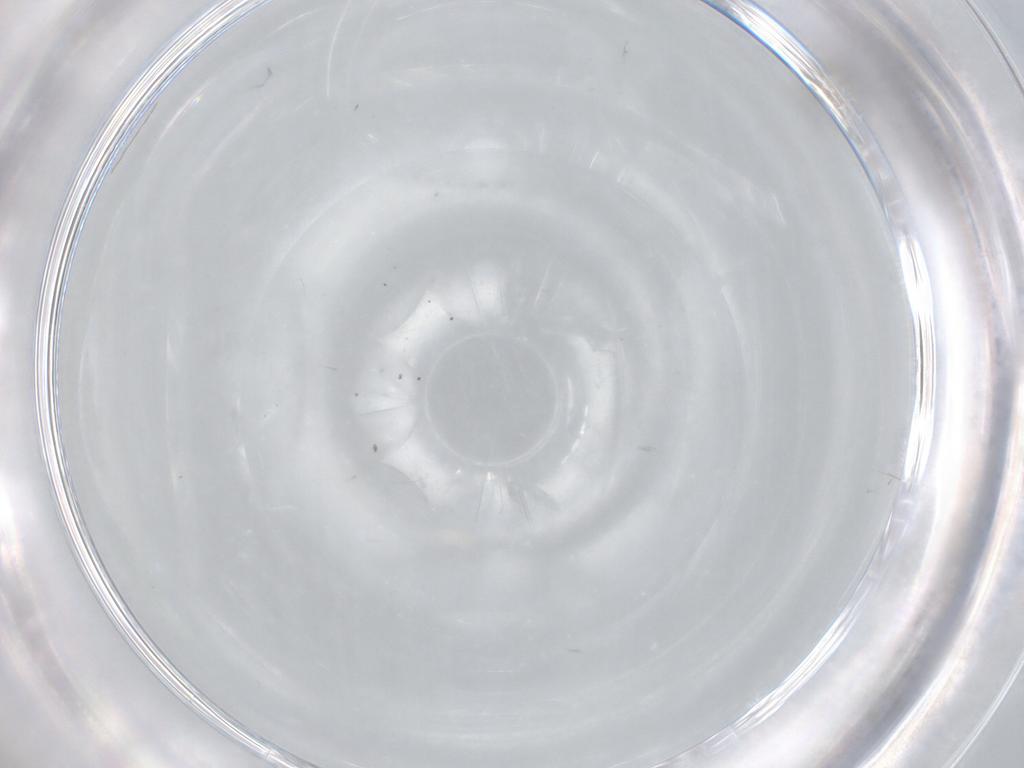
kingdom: Animalia
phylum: Arthropoda
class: Insecta
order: Diptera
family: Cecidomyiidae
